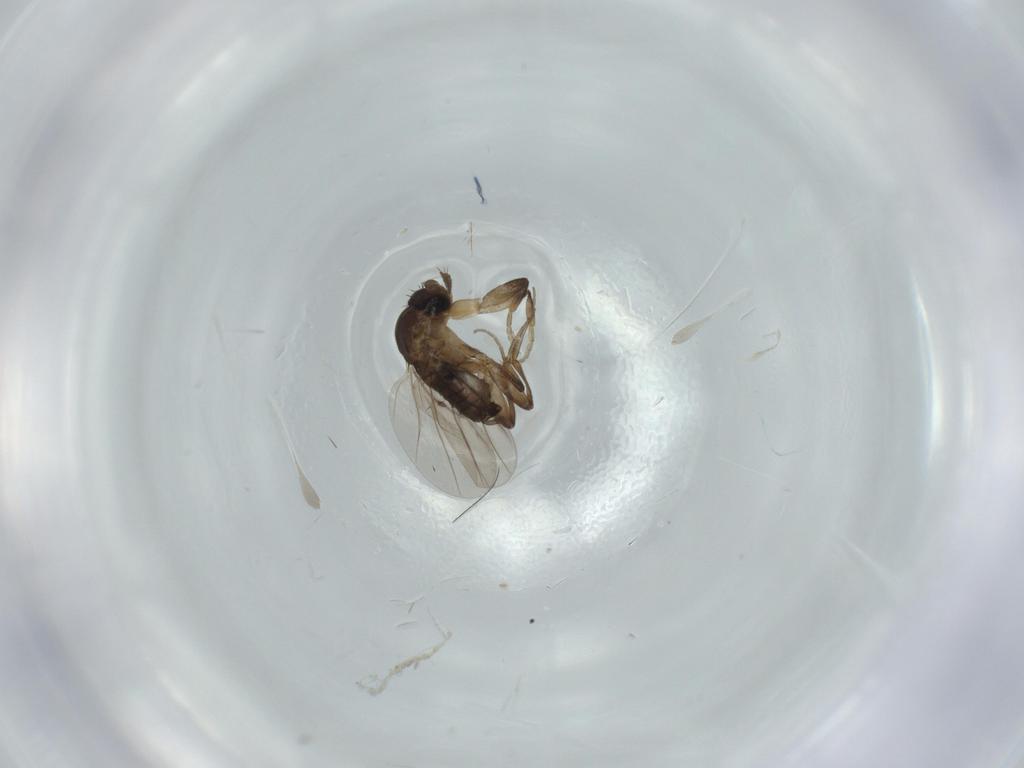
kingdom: Animalia
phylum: Arthropoda
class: Insecta
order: Diptera
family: Phoridae
